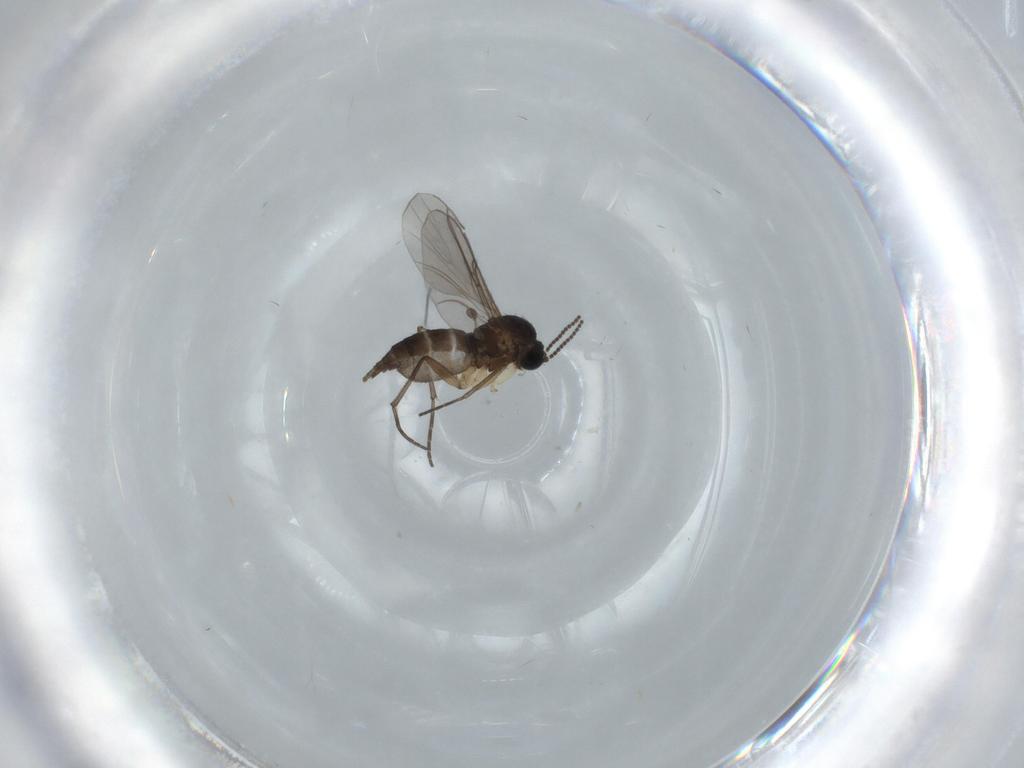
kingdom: Animalia
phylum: Arthropoda
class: Insecta
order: Diptera
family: Sciaridae
